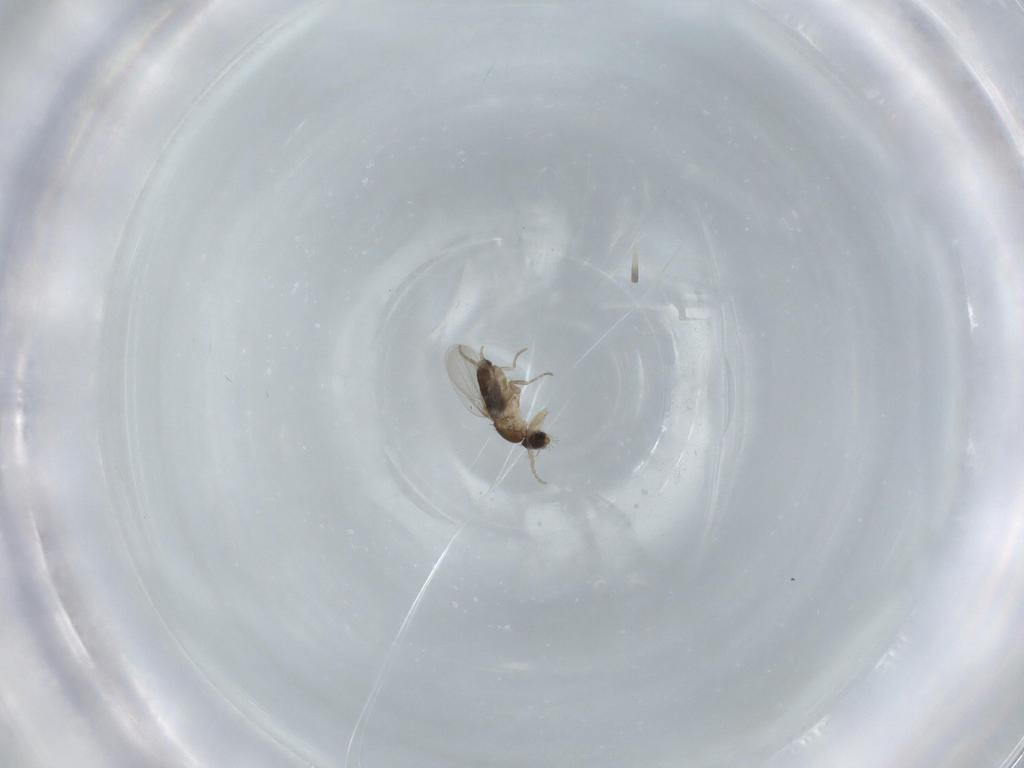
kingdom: Animalia
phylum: Arthropoda
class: Insecta
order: Diptera
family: Phoridae
